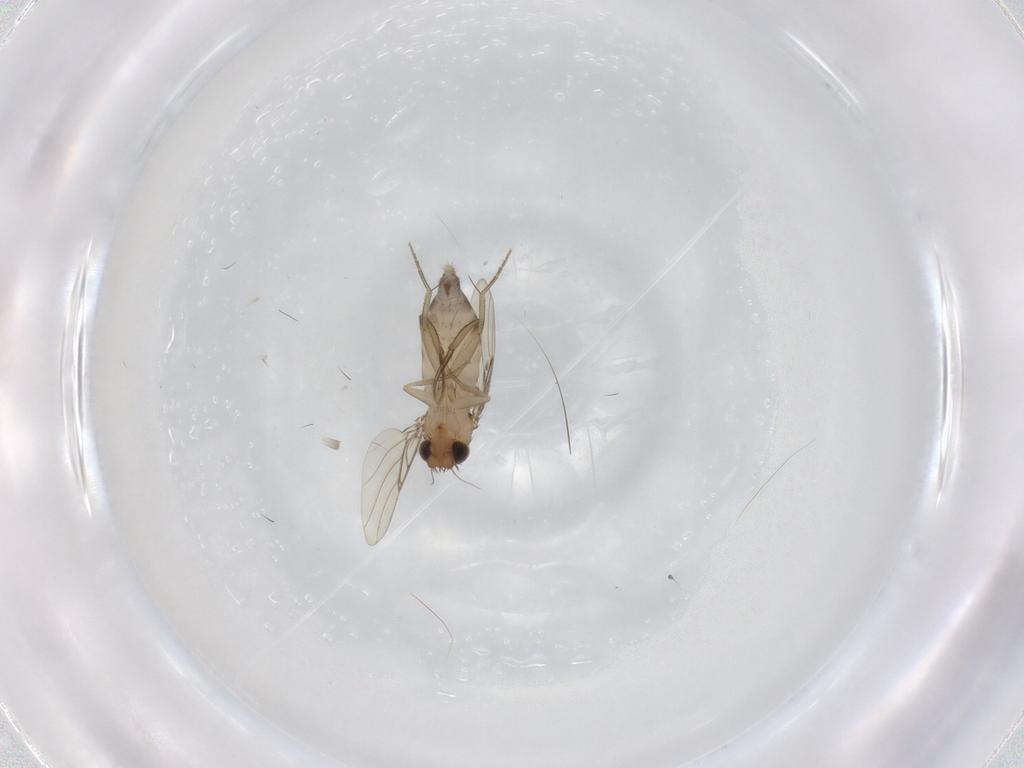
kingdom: Animalia
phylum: Arthropoda
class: Insecta
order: Diptera
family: Phoridae
